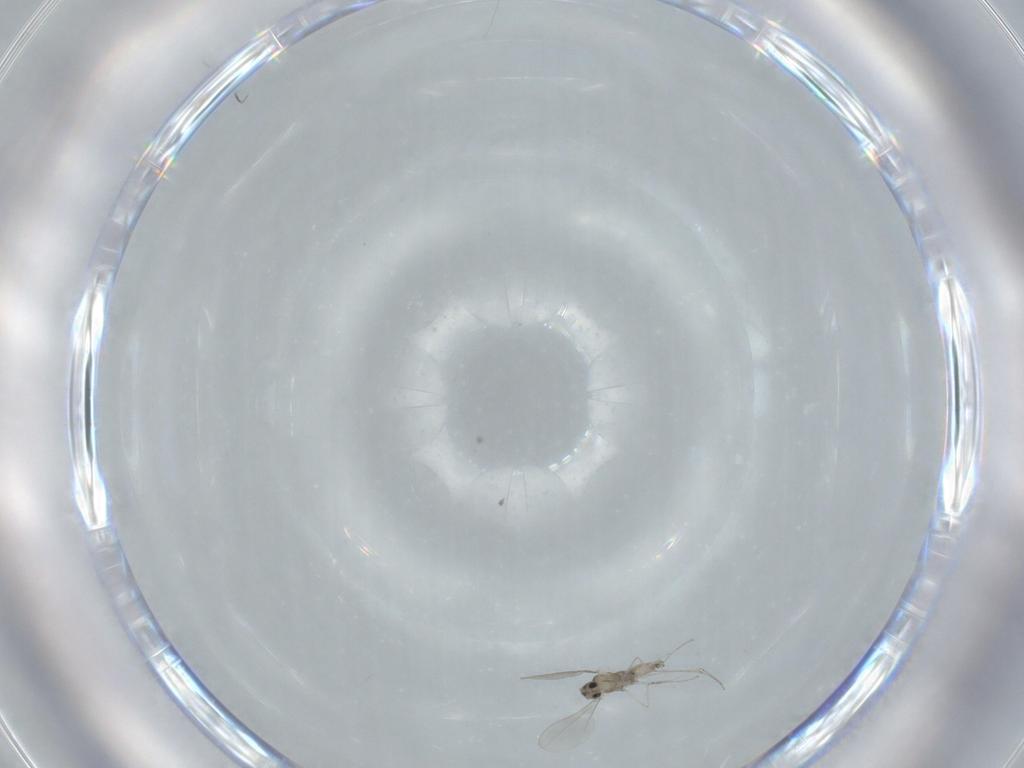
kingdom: Animalia
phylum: Arthropoda
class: Insecta
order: Diptera
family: Cecidomyiidae
